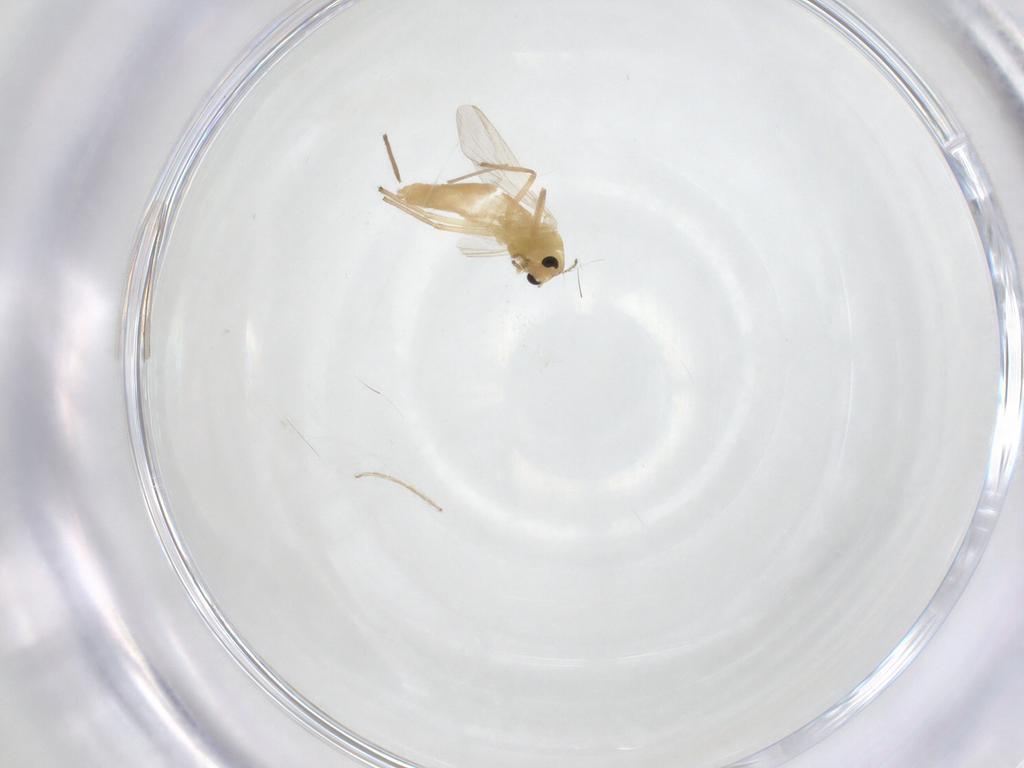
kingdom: Animalia
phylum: Arthropoda
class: Insecta
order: Diptera
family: Chironomidae
